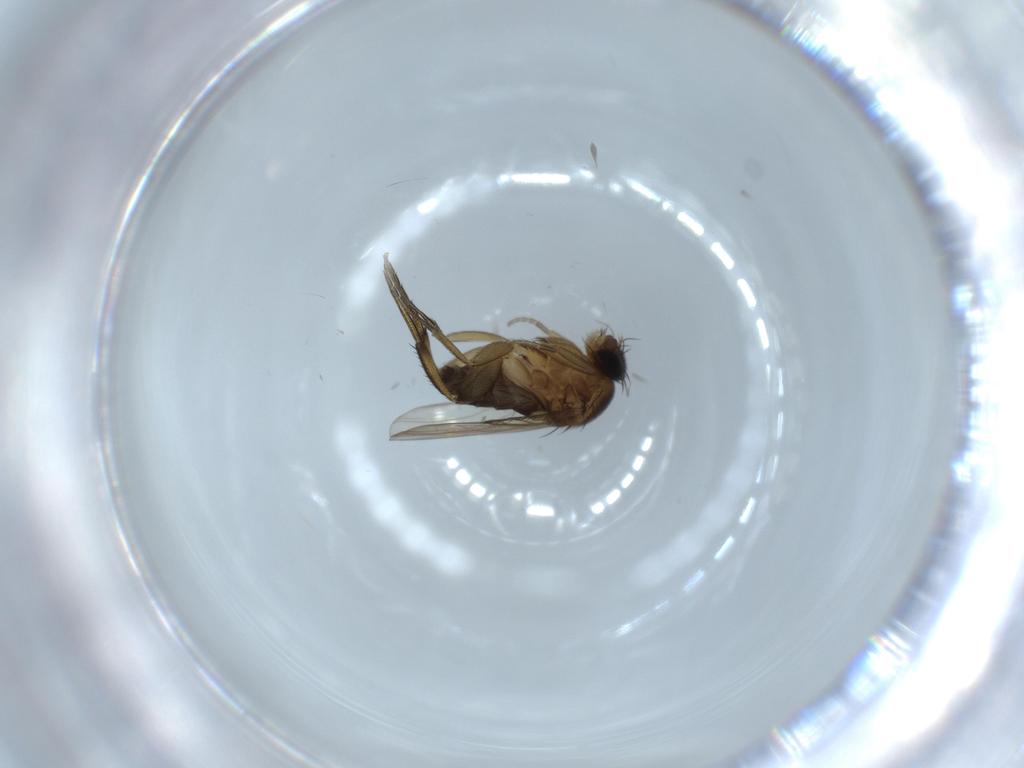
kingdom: Animalia
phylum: Arthropoda
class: Insecta
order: Diptera
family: Phoridae
